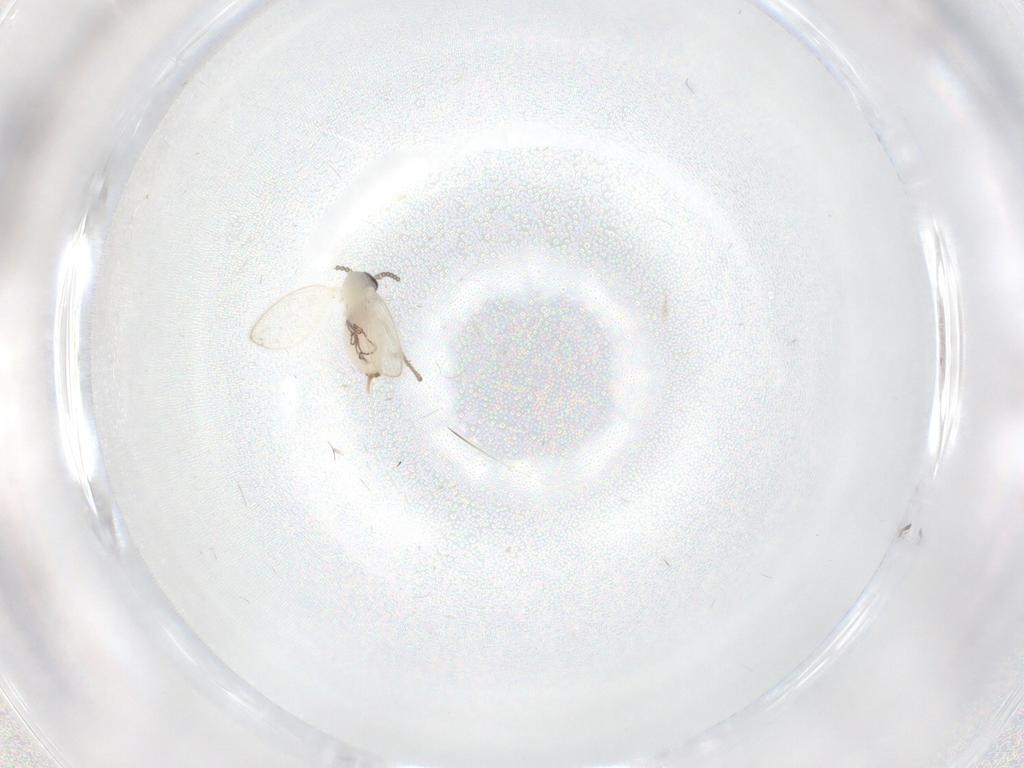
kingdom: Animalia
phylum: Arthropoda
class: Insecta
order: Diptera
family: Psychodidae
